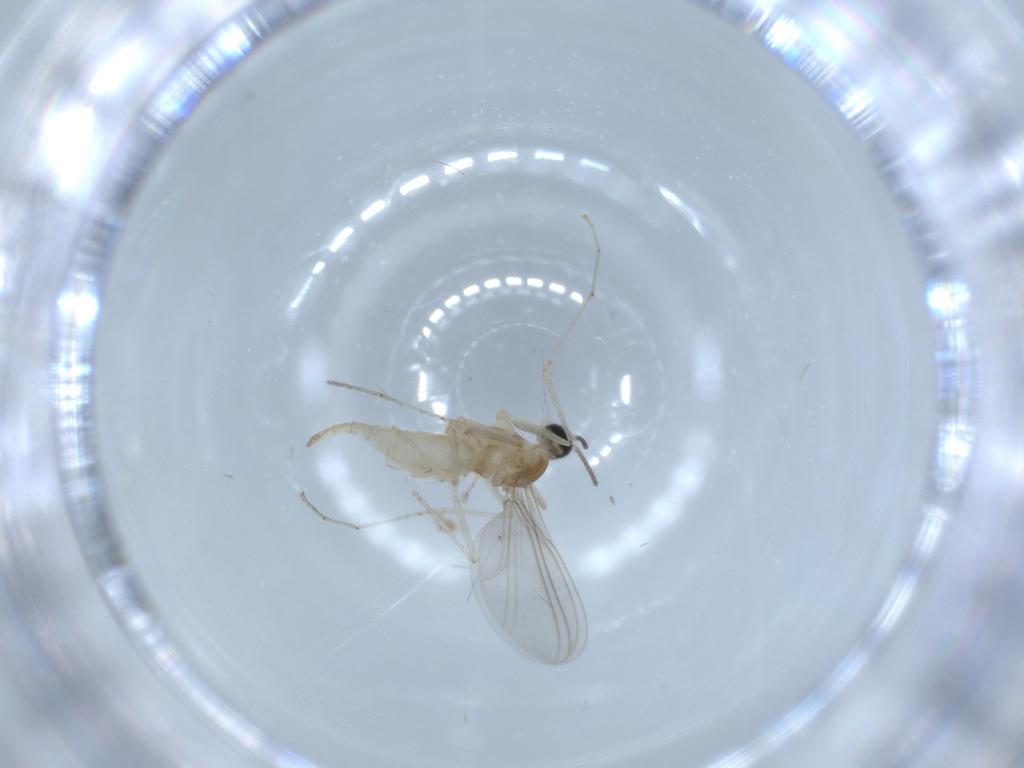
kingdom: Animalia
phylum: Arthropoda
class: Insecta
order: Diptera
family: Cecidomyiidae
